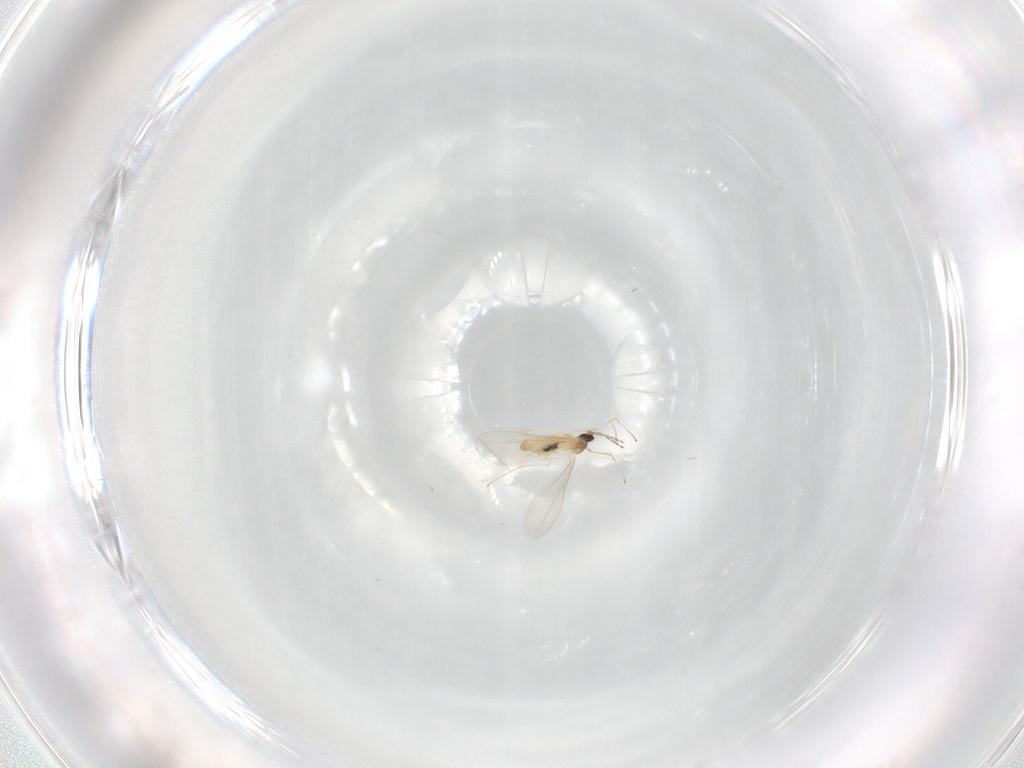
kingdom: Animalia
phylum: Arthropoda
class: Insecta
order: Diptera
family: Cecidomyiidae
